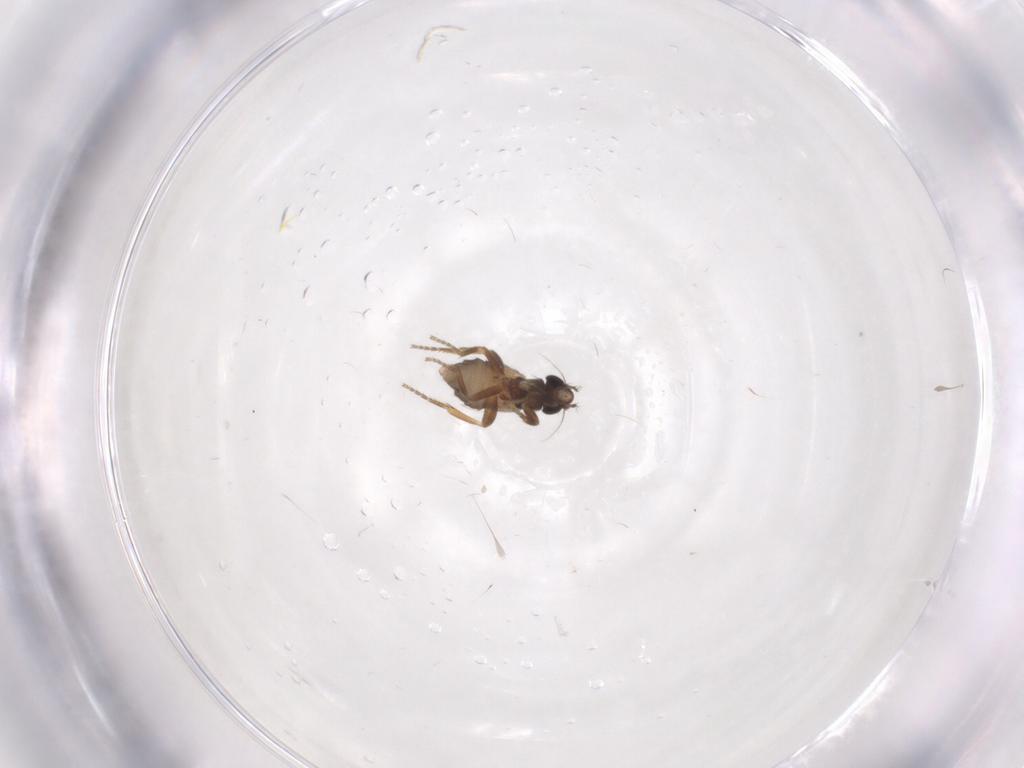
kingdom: Animalia
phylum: Arthropoda
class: Insecta
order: Diptera
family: Phoridae
